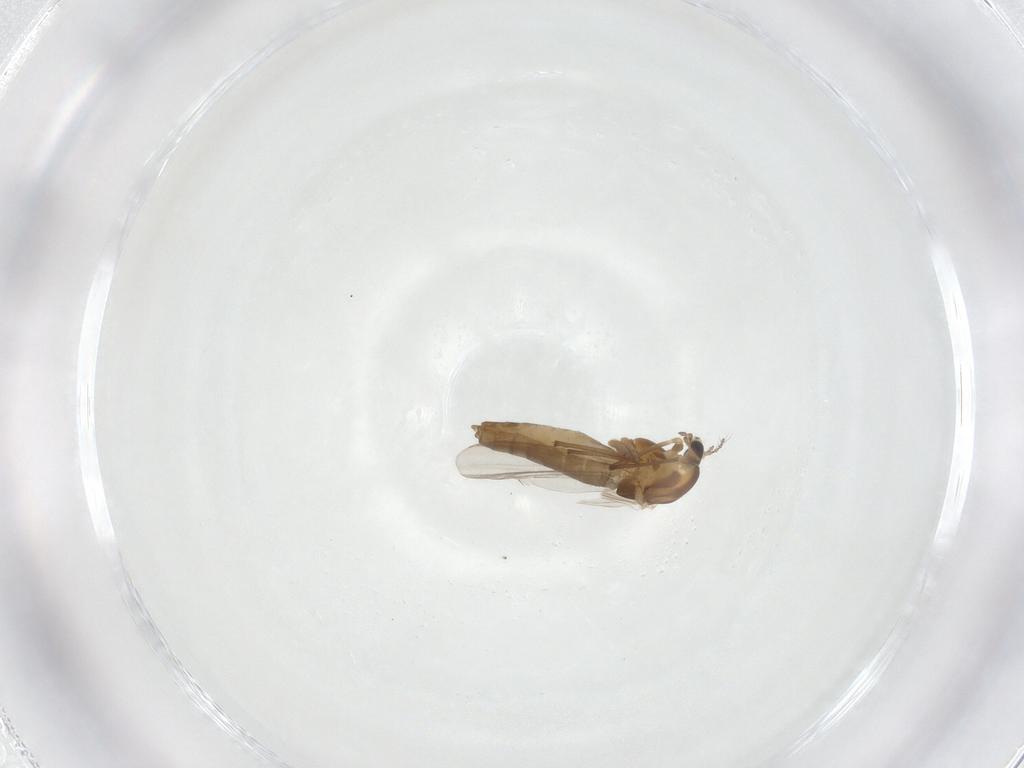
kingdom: Animalia
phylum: Arthropoda
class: Insecta
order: Diptera
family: Chironomidae
